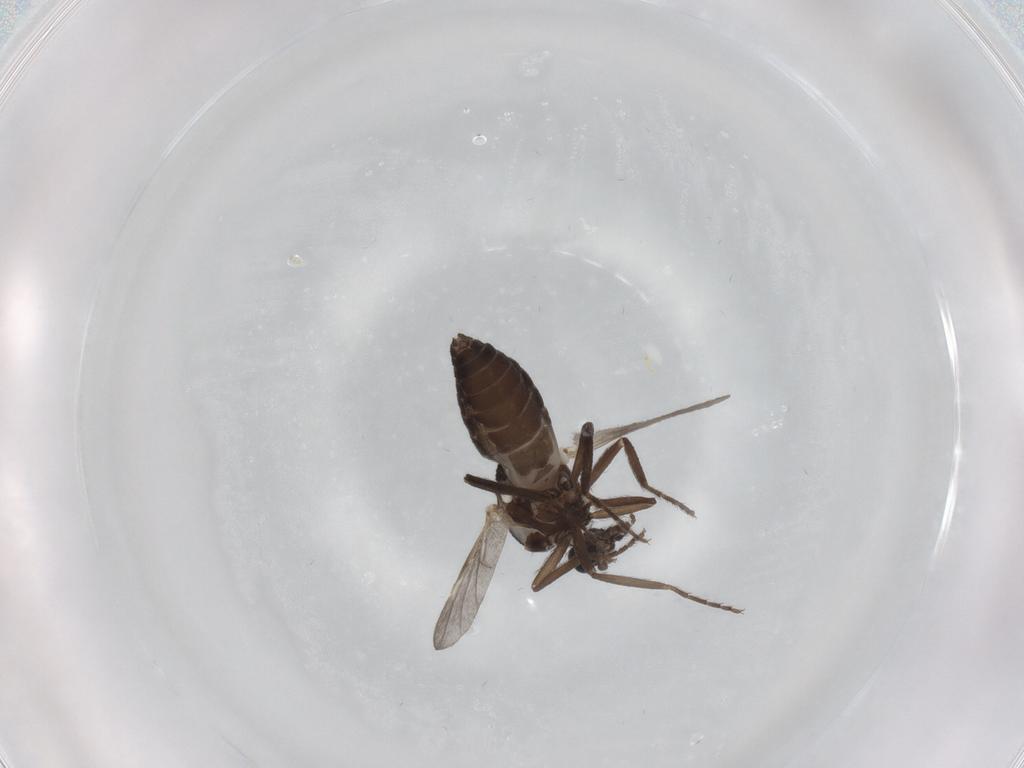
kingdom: Animalia
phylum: Arthropoda
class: Insecta
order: Diptera
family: Ceratopogonidae
